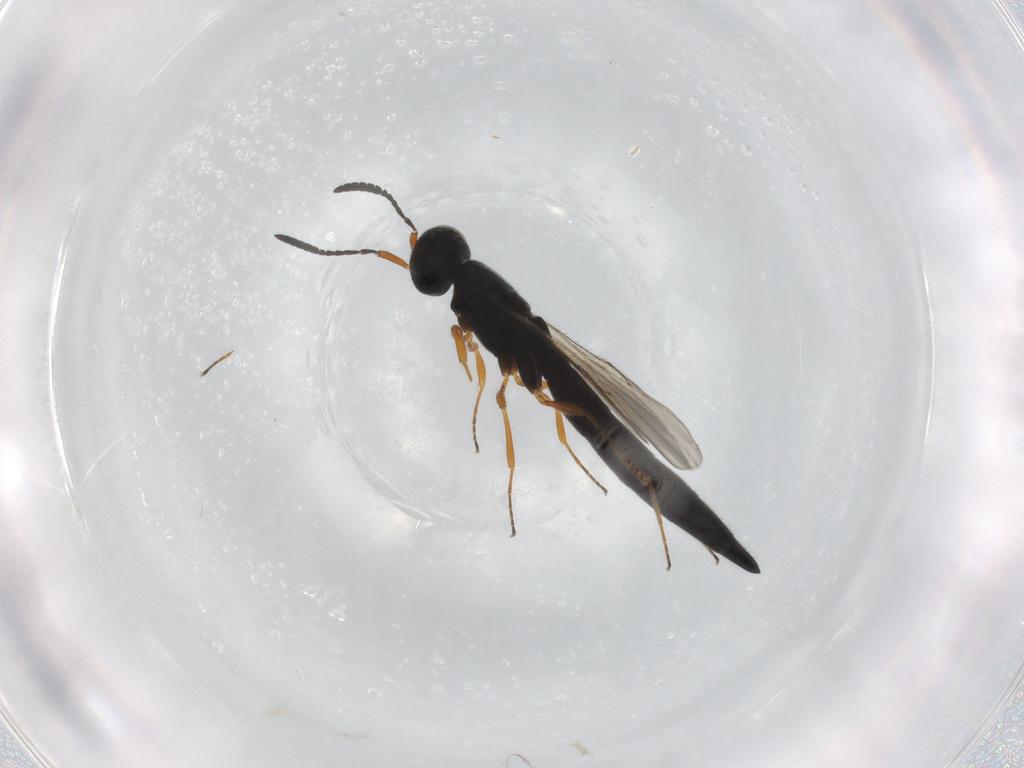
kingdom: Animalia
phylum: Arthropoda
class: Insecta
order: Hymenoptera
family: Scelionidae
